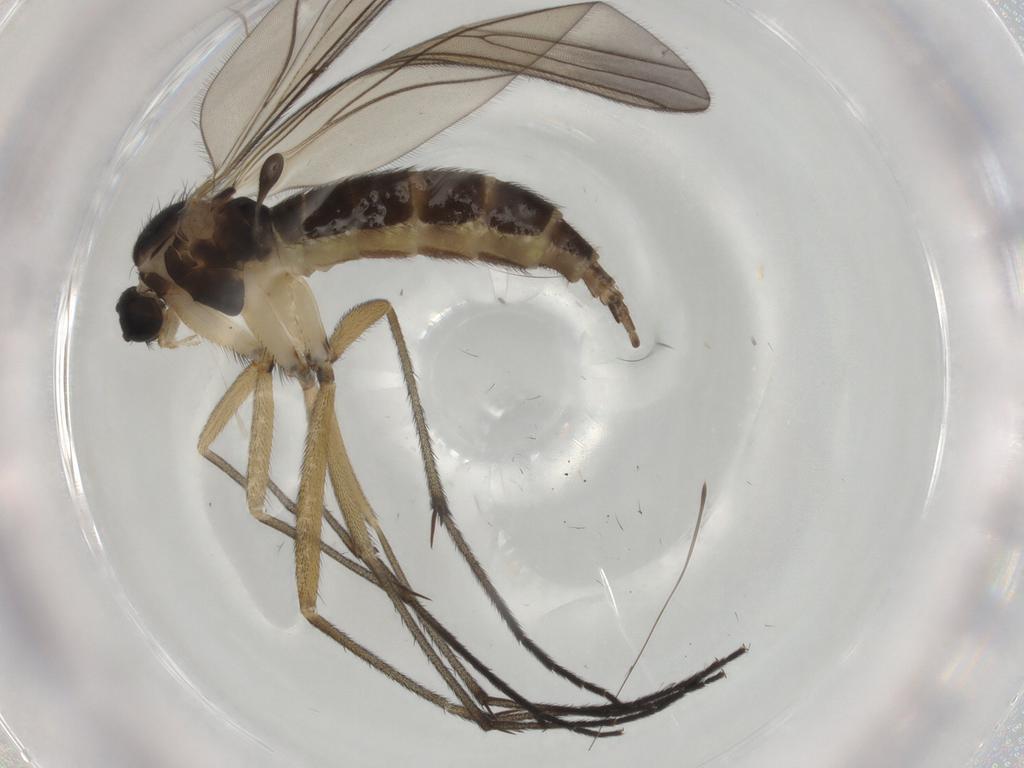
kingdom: Animalia
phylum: Arthropoda
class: Insecta
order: Diptera
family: Sciaridae
